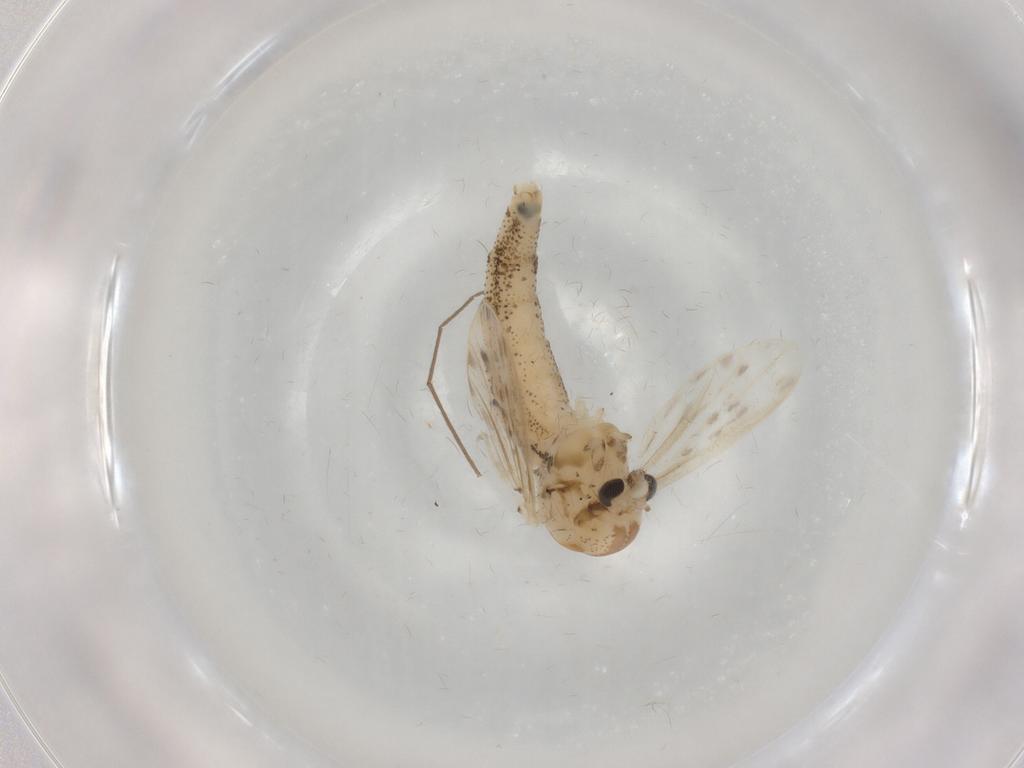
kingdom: Animalia
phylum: Arthropoda
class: Insecta
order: Diptera
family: Chaoboridae
